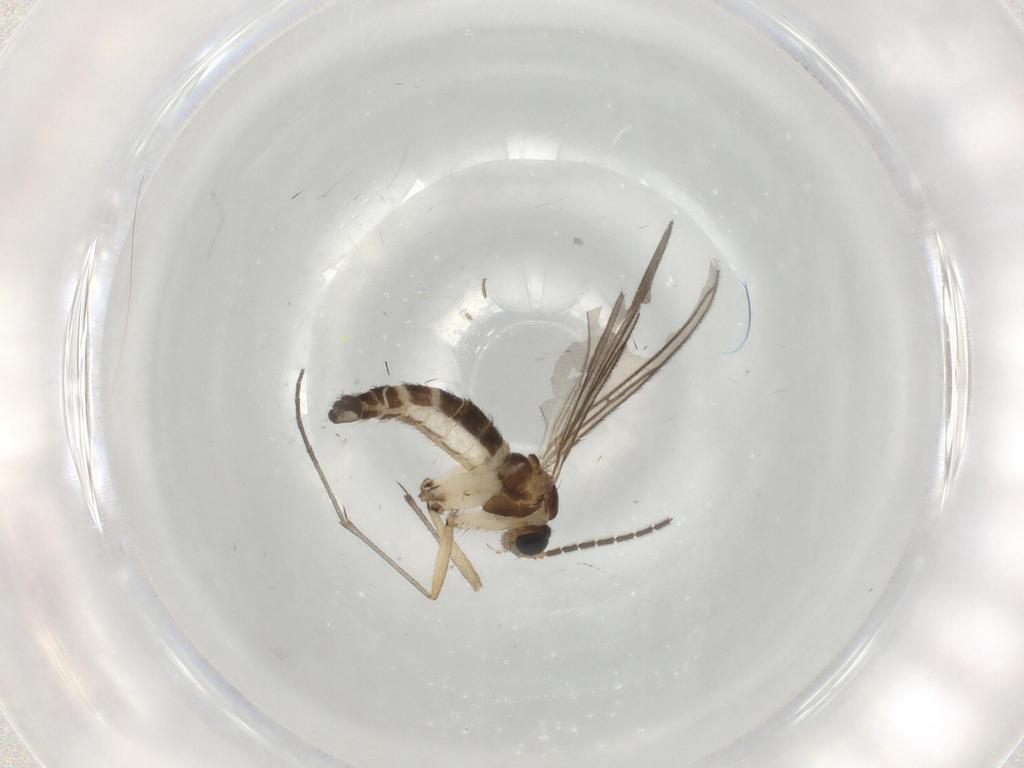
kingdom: Animalia
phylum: Arthropoda
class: Insecta
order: Diptera
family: Sciaridae
